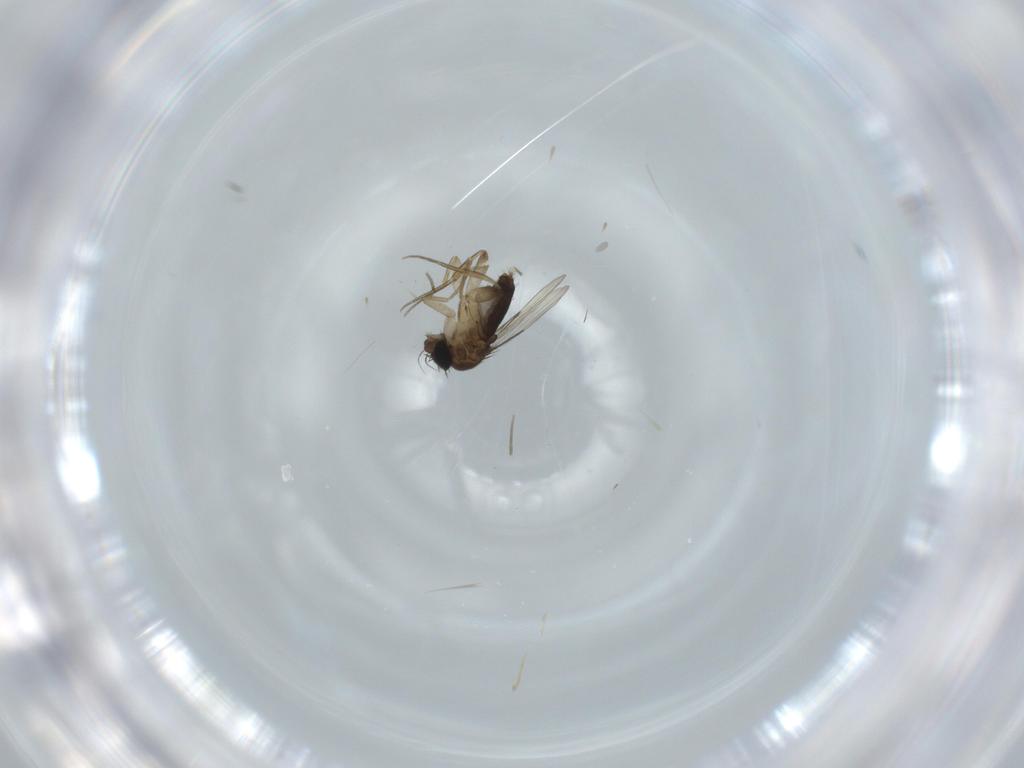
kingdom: Animalia
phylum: Arthropoda
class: Insecta
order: Diptera
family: Phoridae
